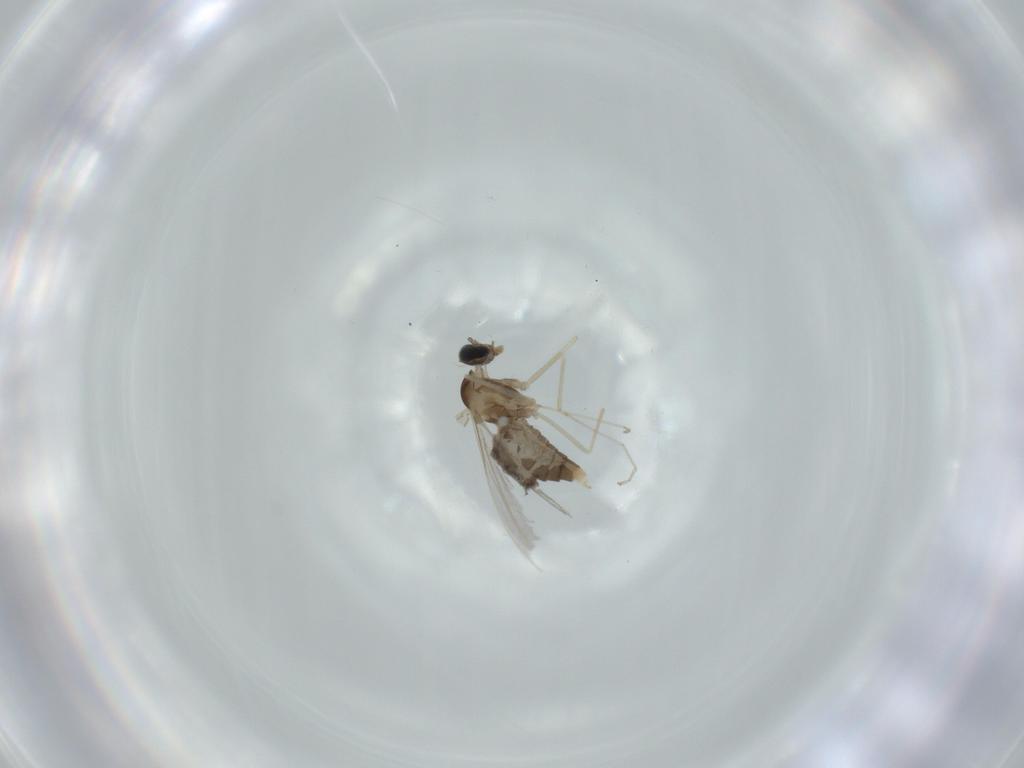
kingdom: Animalia
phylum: Arthropoda
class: Insecta
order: Diptera
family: Cecidomyiidae
